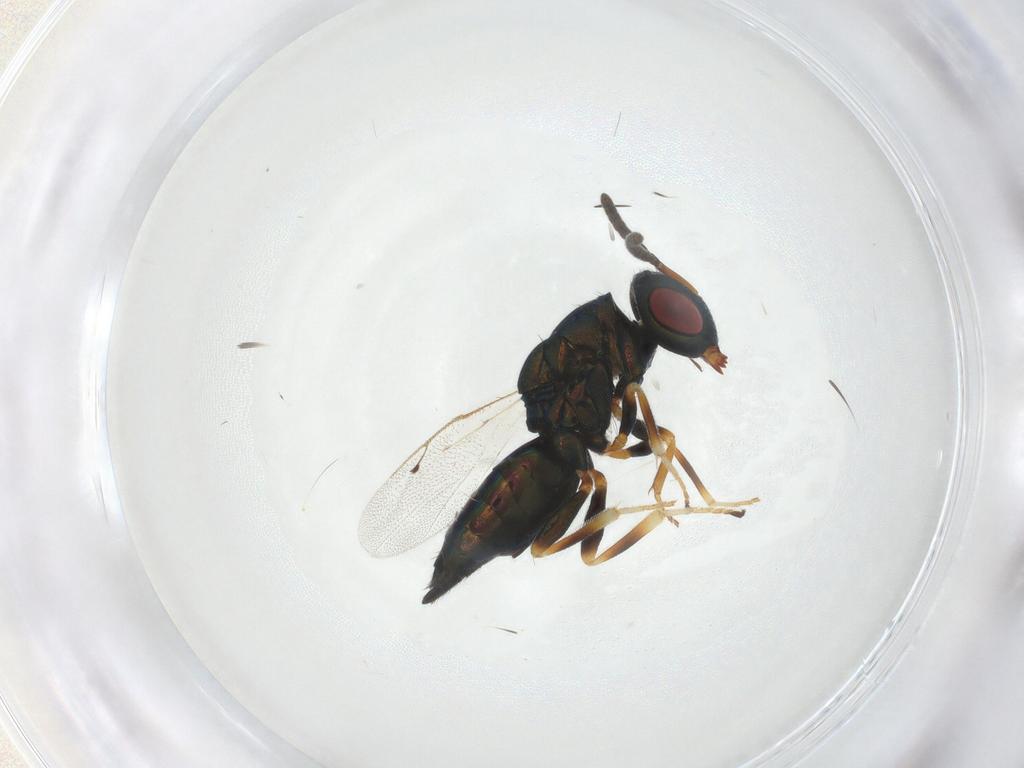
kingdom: Animalia
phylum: Arthropoda
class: Insecta
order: Hymenoptera
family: Pteromalidae
